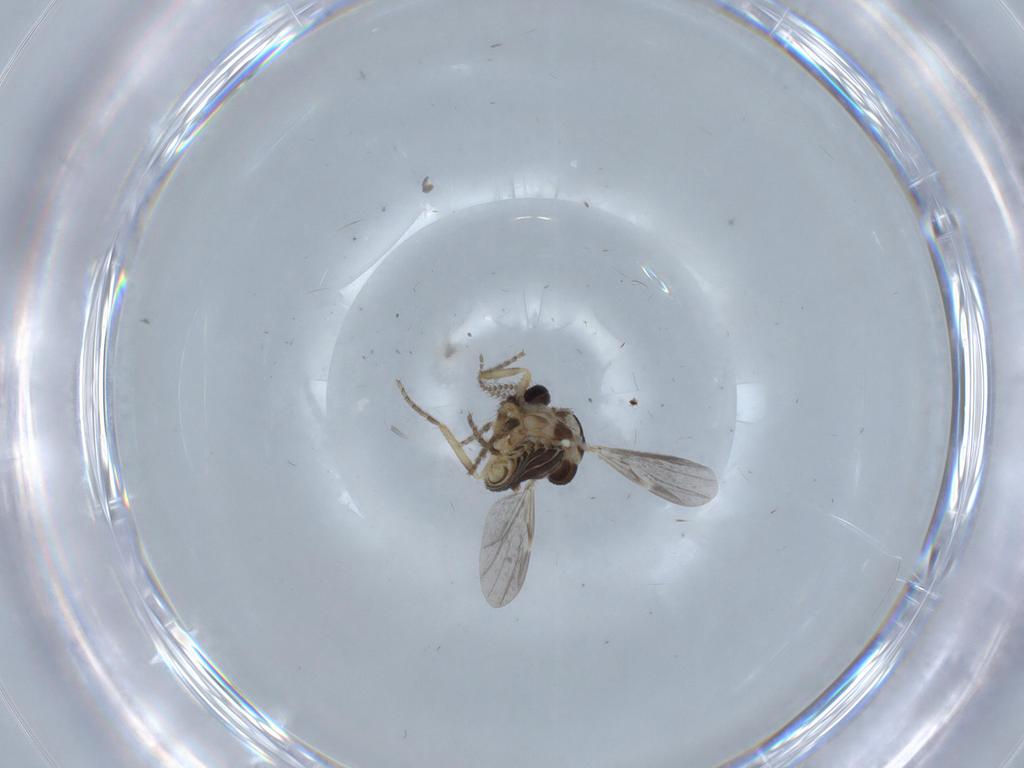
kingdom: Animalia
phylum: Arthropoda
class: Insecta
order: Diptera
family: Ceratopogonidae
